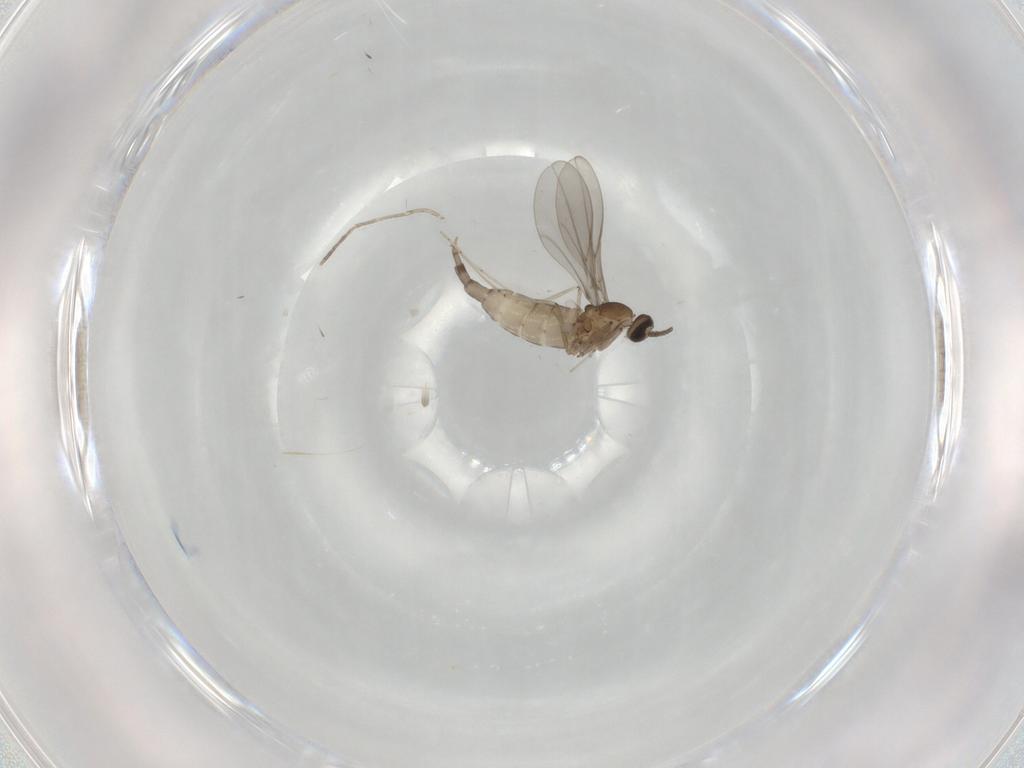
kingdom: Animalia
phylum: Arthropoda
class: Insecta
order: Diptera
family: Cecidomyiidae
